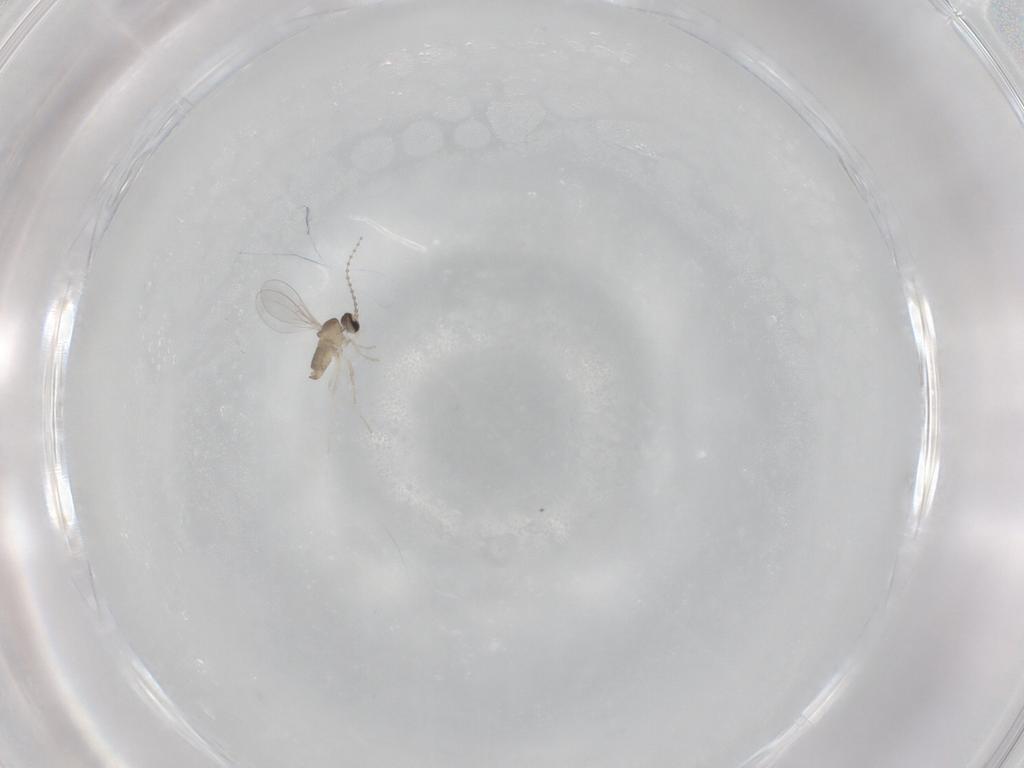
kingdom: Animalia
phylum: Arthropoda
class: Insecta
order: Diptera
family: Cecidomyiidae
